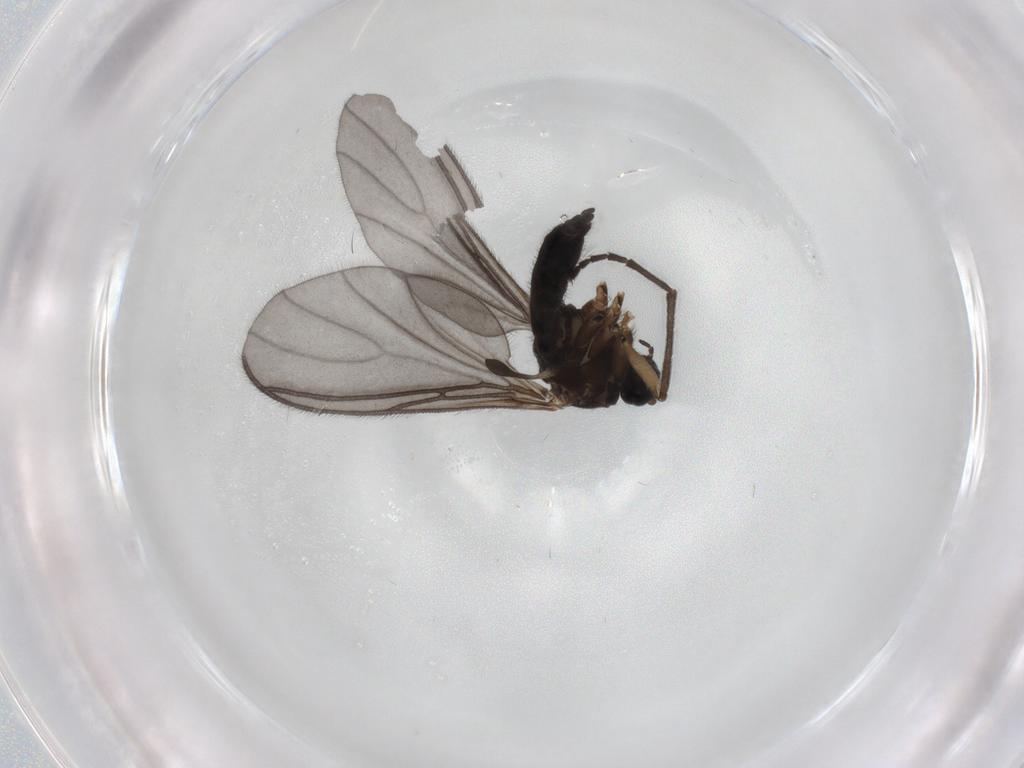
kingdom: Animalia
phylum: Arthropoda
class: Insecta
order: Diptera
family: Sciaridae
